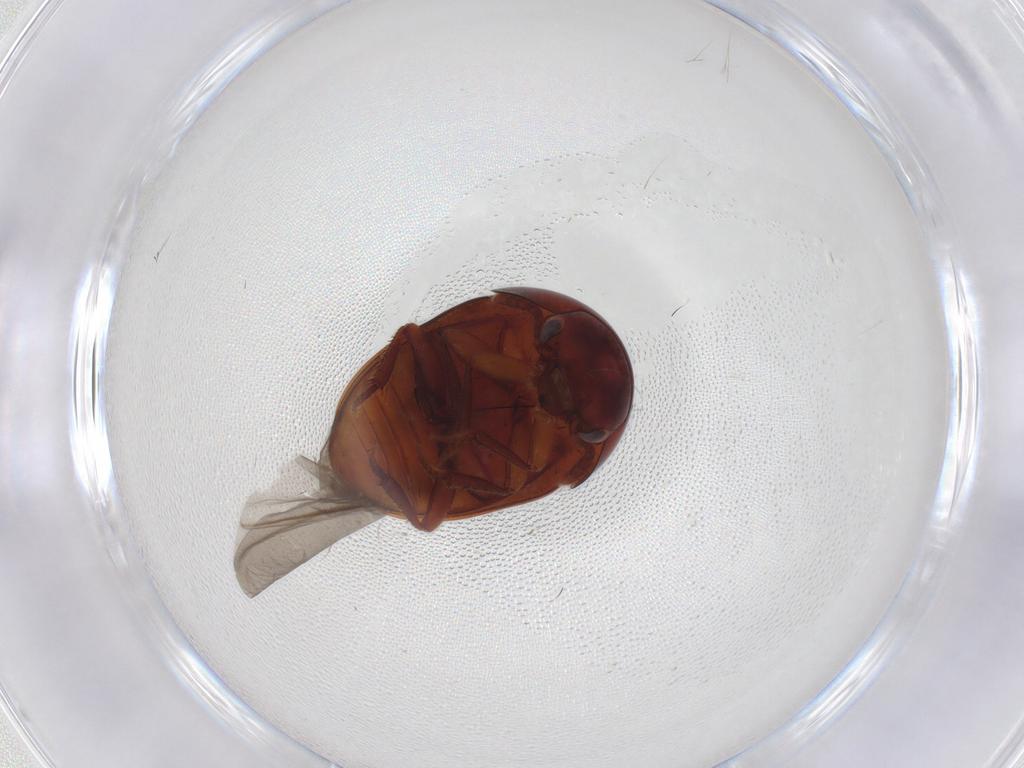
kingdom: Animalia
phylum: Arthropoda
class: Insecta
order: Coleoptera
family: Leiodidae
